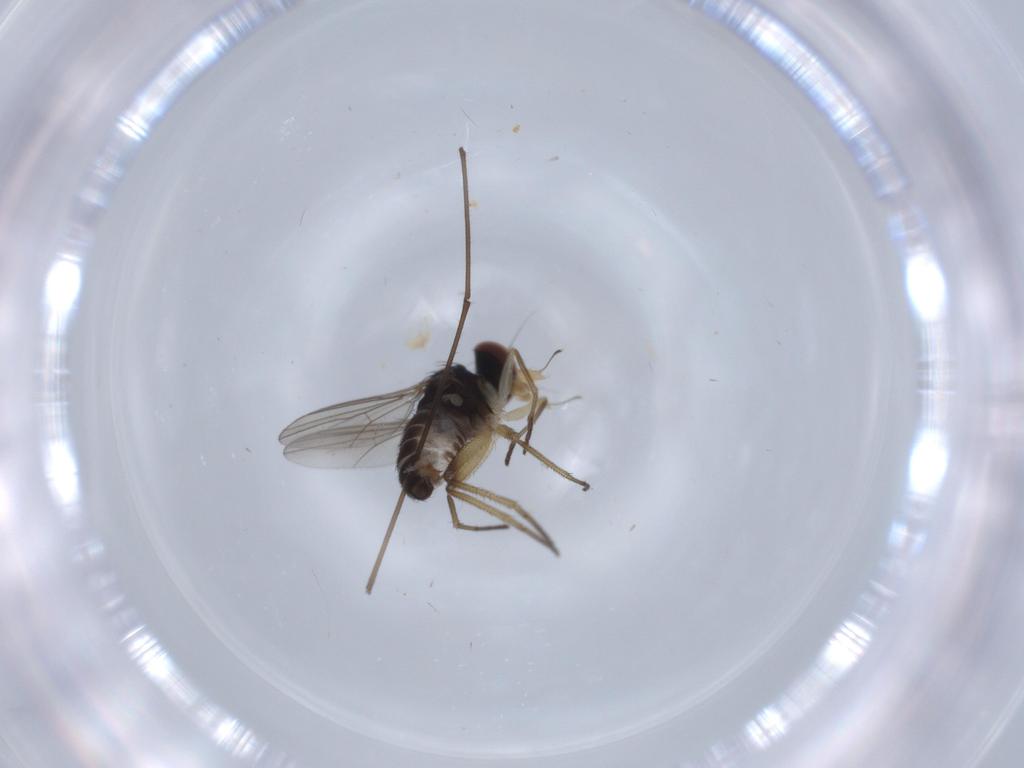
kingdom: Animalia
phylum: Arthropoda
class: Insecta
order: Diptera
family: Dolichopodidae
